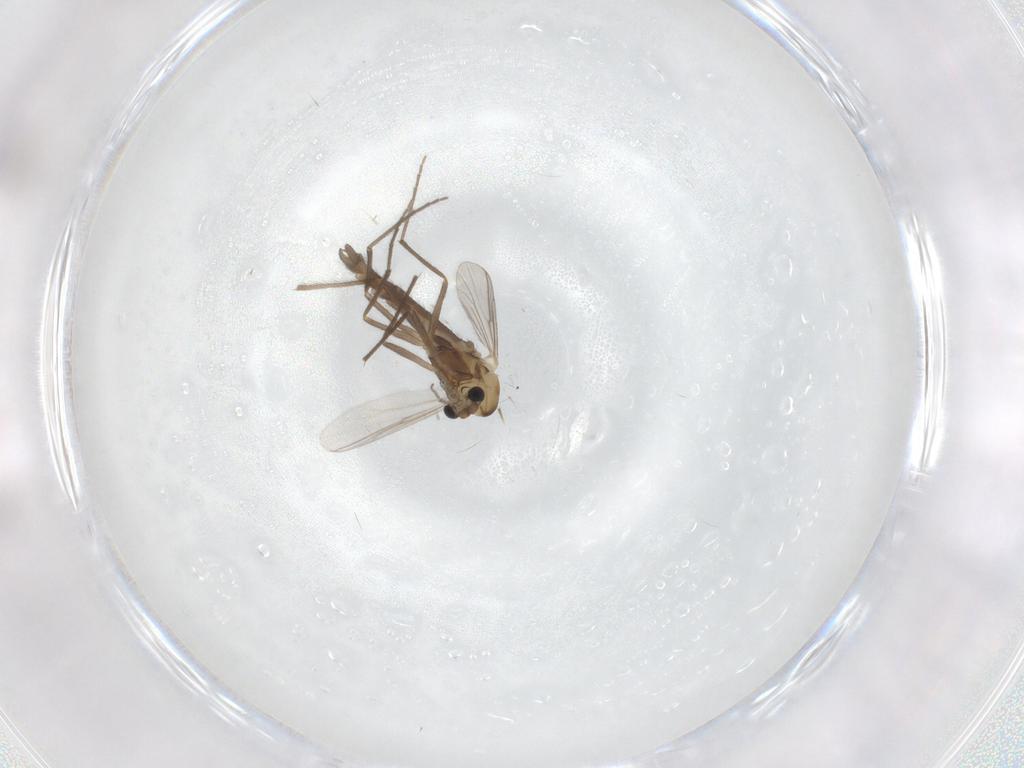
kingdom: Animalia
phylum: Arthropoda
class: Insecta
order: Diptera
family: Chironomidae
